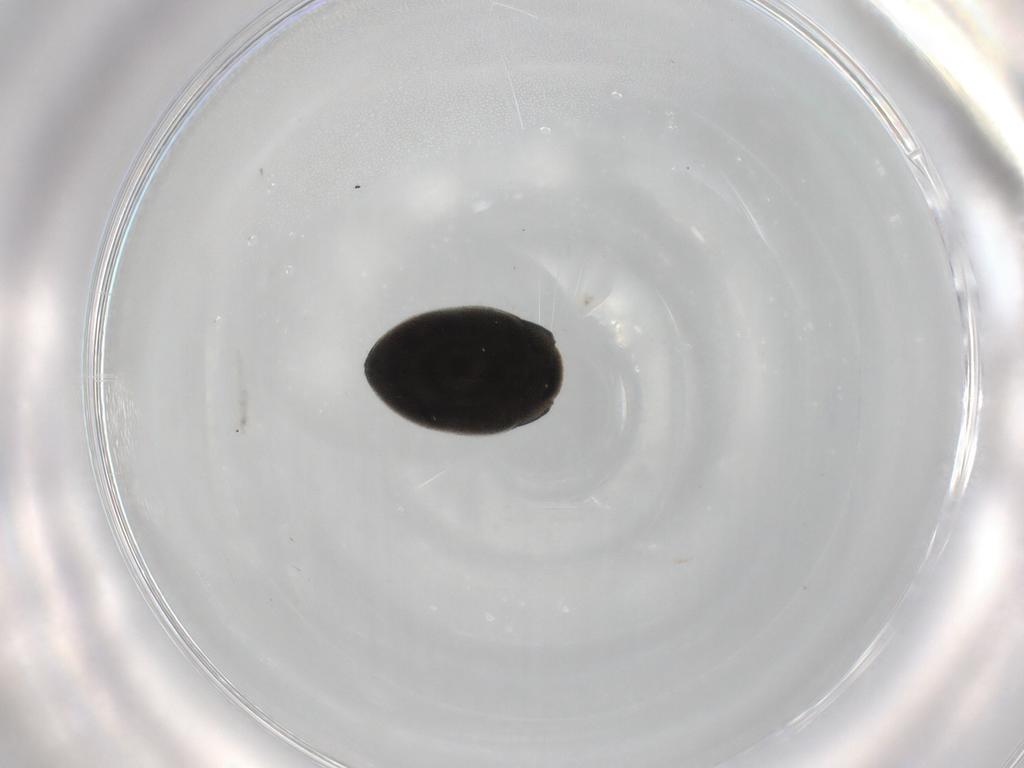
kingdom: Animalia
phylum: Arthropoda
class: Insecta
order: Coleoptera
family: Limnichidae
